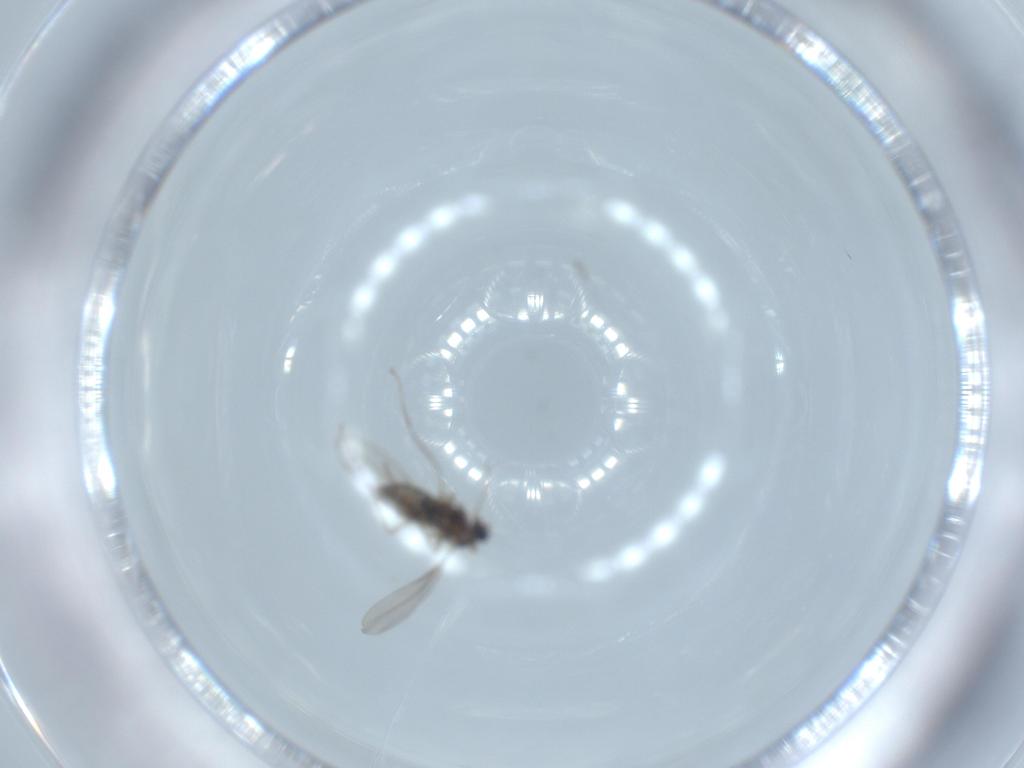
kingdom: Animalia
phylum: Arthropoda
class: Insecta
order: Diptera
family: Cecidomyiidae
